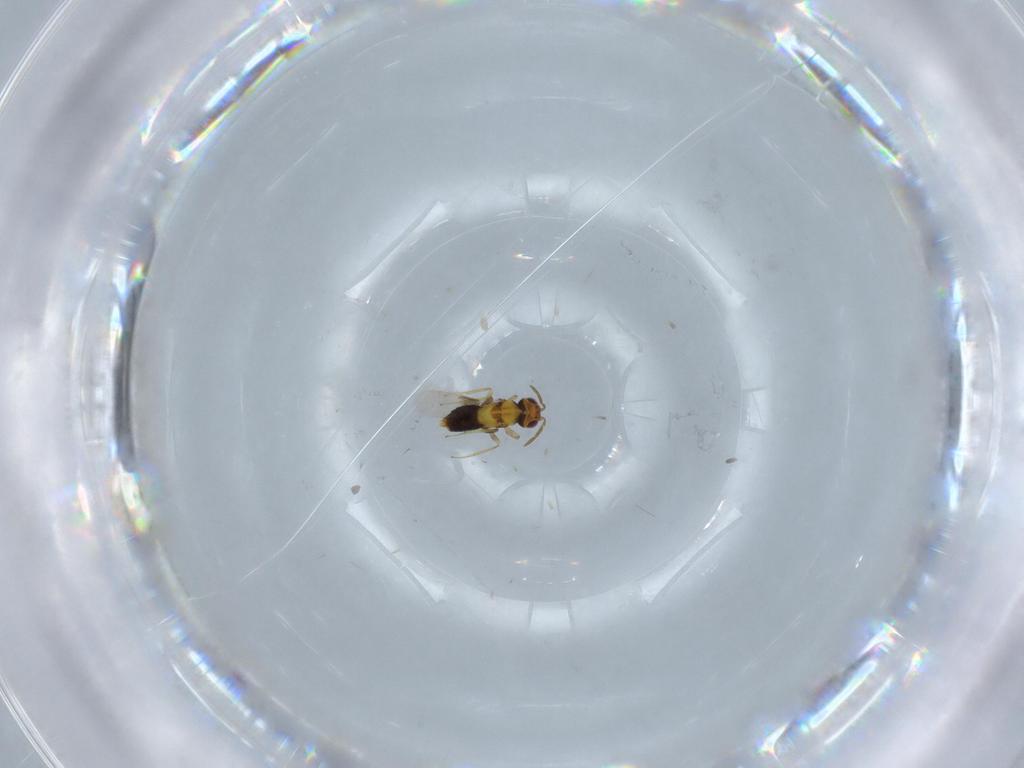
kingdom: Animalia
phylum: Arthropoda
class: Insecta
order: Hymenoptera
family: Aphelinidae
